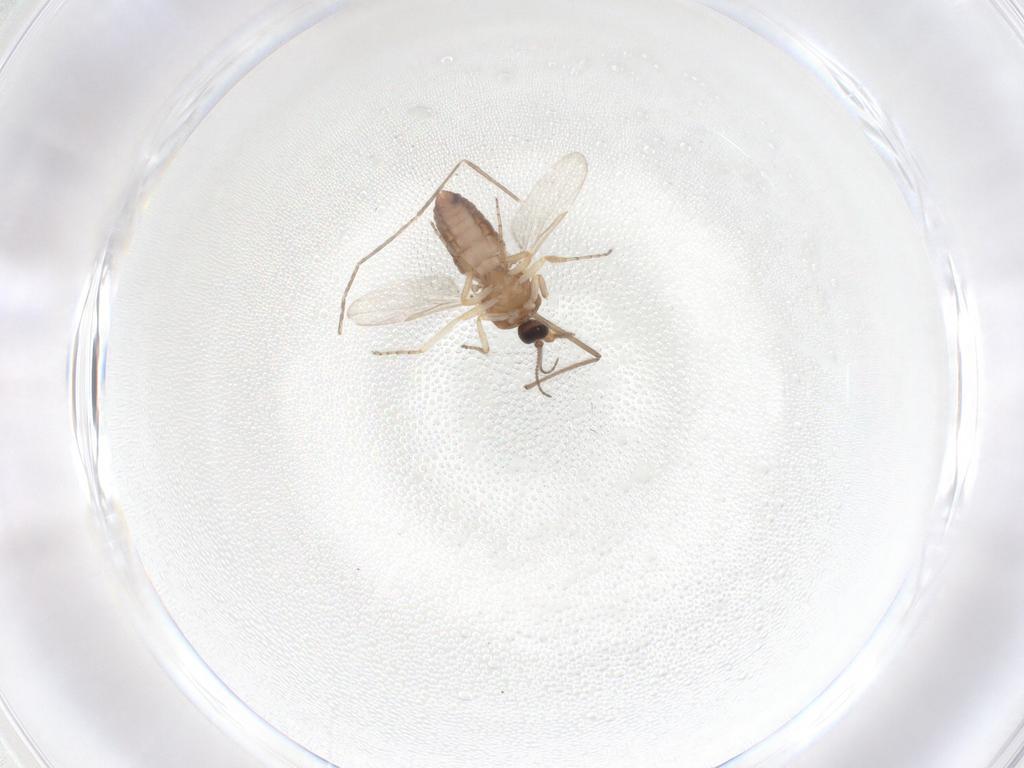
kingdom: Animalia
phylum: Arthropoda
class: Insecta
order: Diptera
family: Ceratopogonidae
